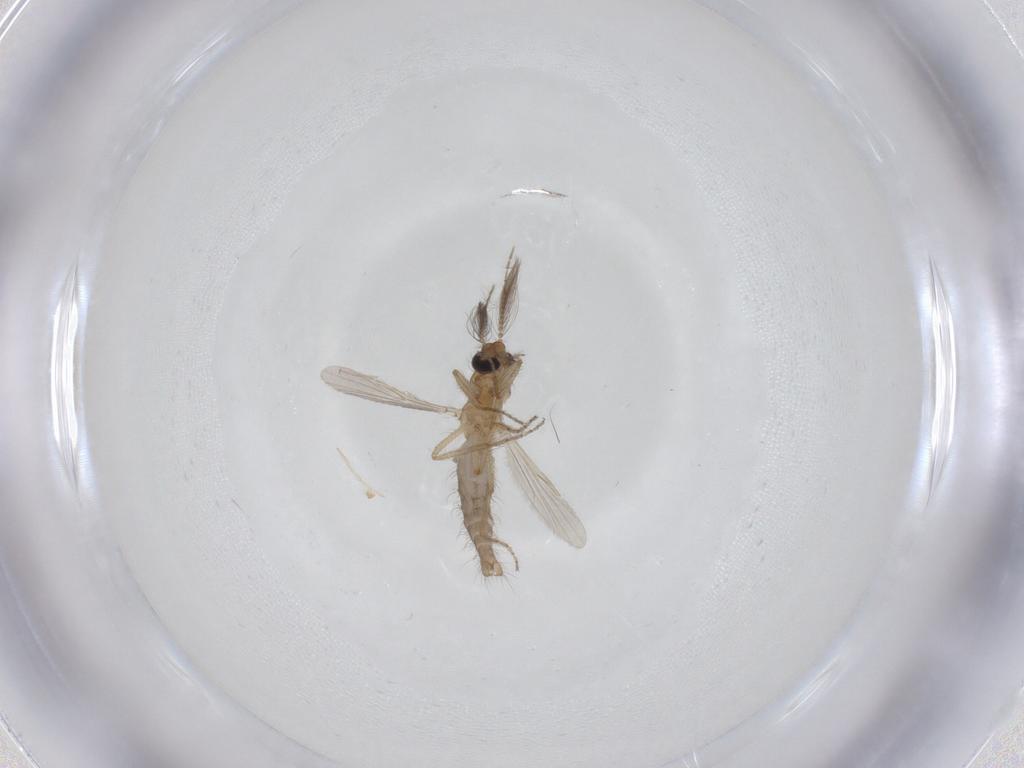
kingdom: Animalia
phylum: Arthropoda
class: Insecta
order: Diptera
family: Ceratopogonidae
